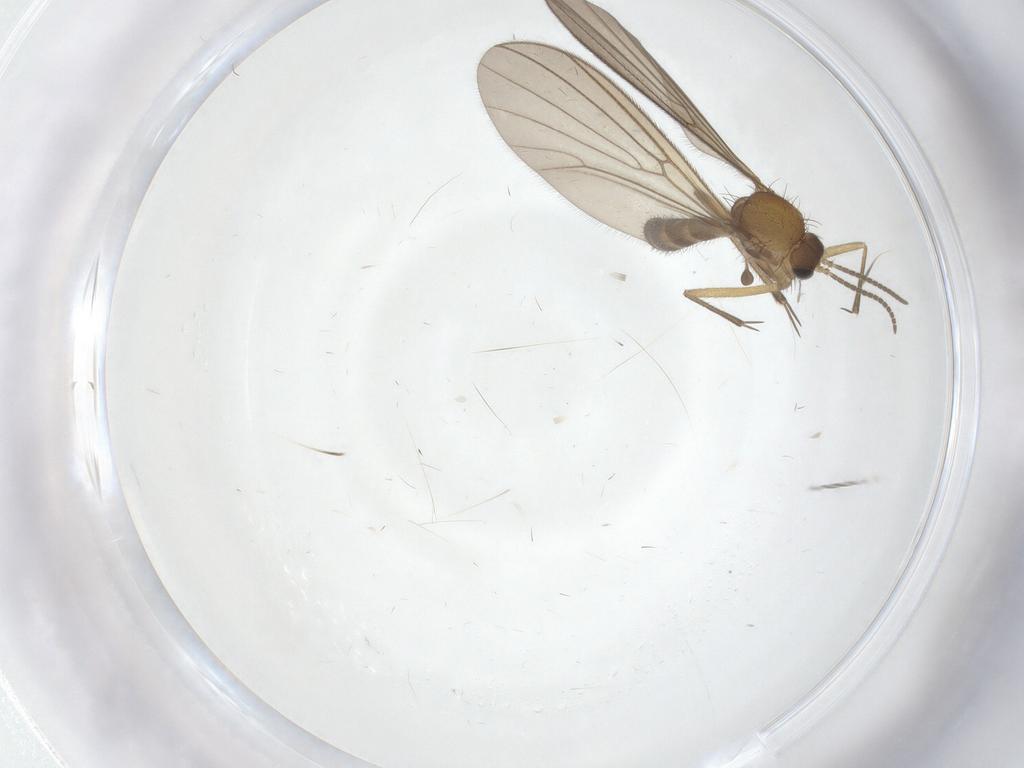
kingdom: Animalia
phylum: Arthropoda
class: Insecta
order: Diptera
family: Mycetophilidae
